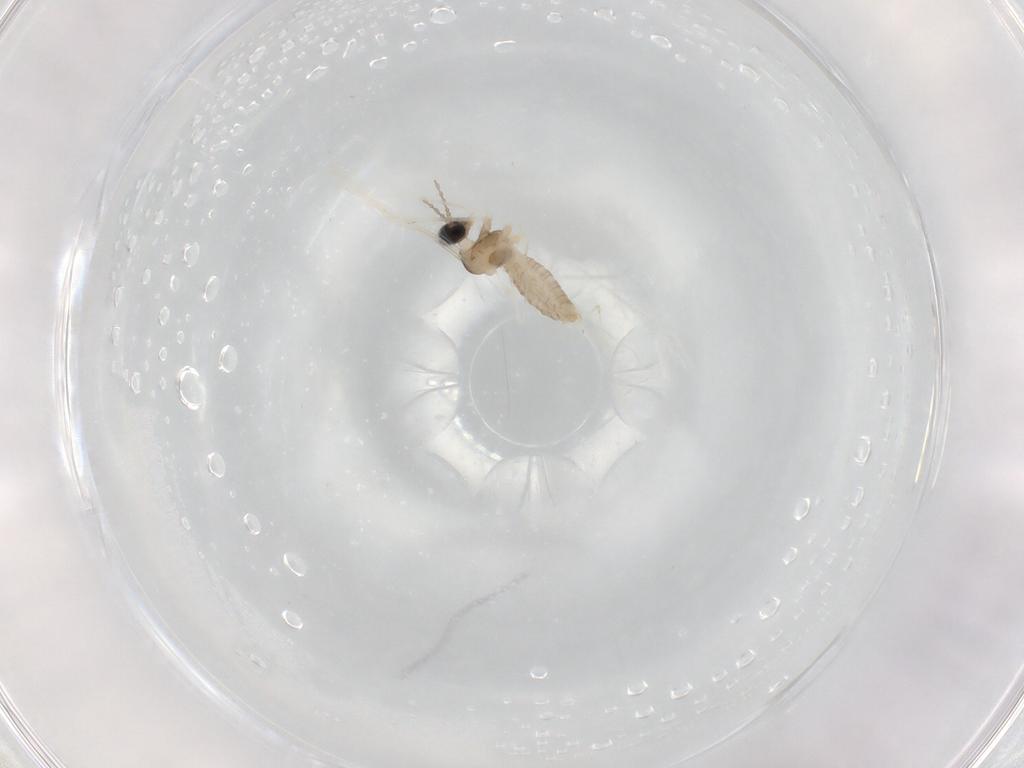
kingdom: Animalia
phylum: Arthropoda
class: Insecta
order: Diptera
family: Cecidomyiidae
